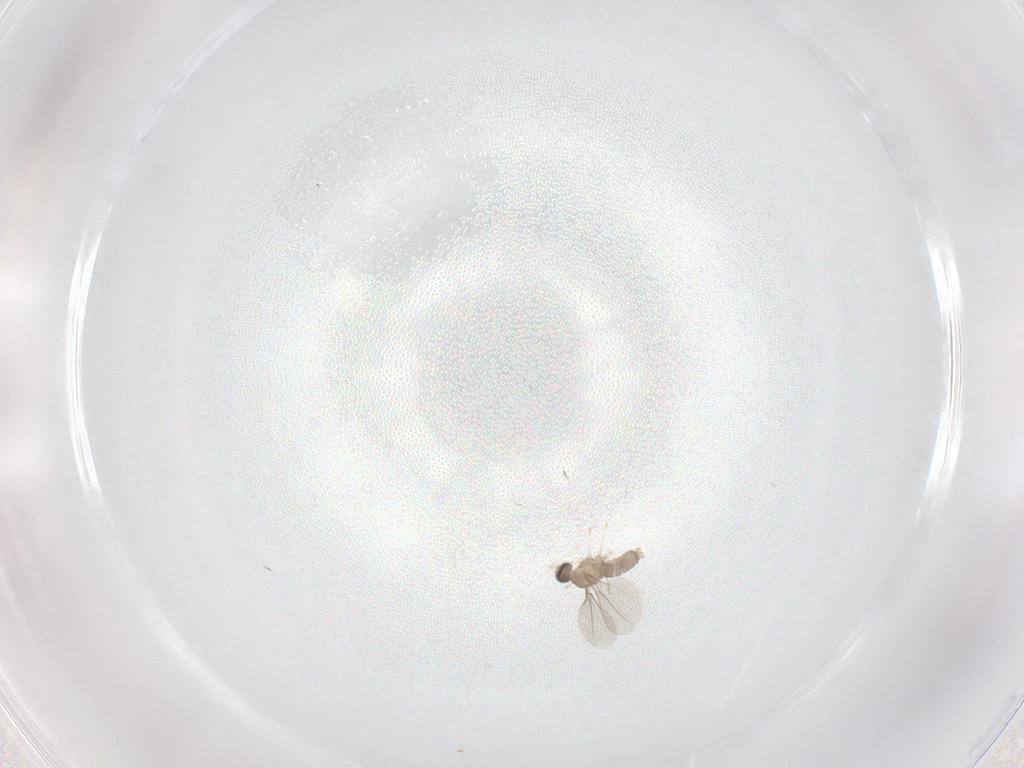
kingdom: Animalia
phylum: Arthropoda
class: Insecta
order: Diptera
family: Cecidomyiidae
